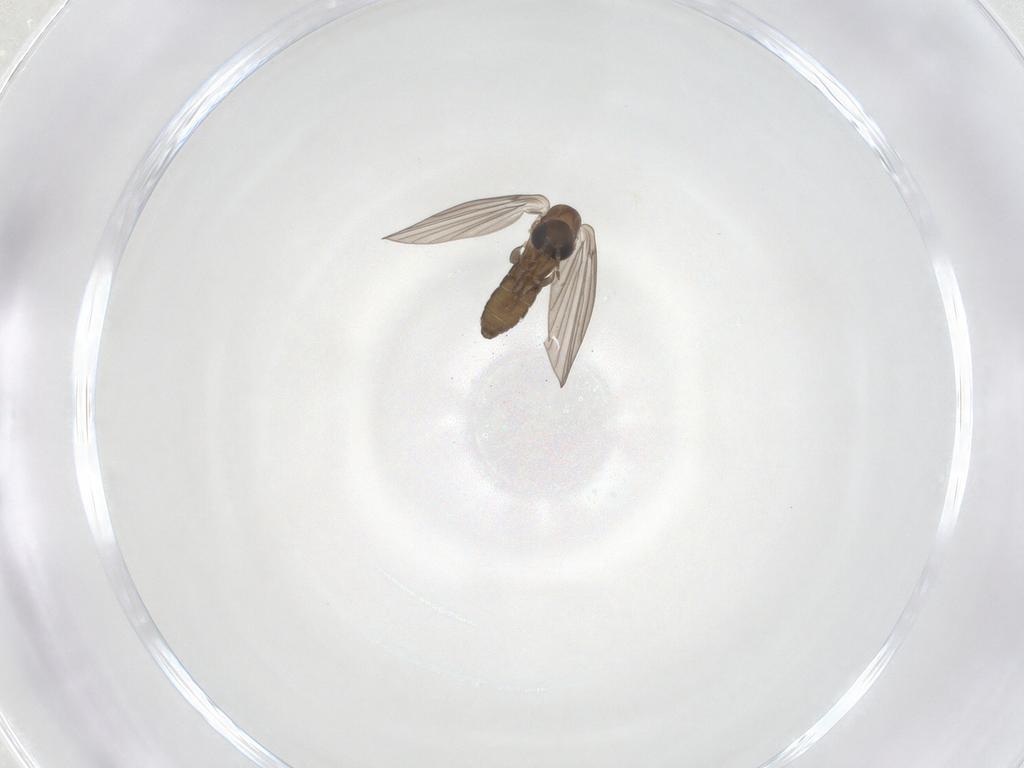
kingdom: Animalia
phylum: Arthropoda
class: Insecta
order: Diptera
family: Psychodidae
